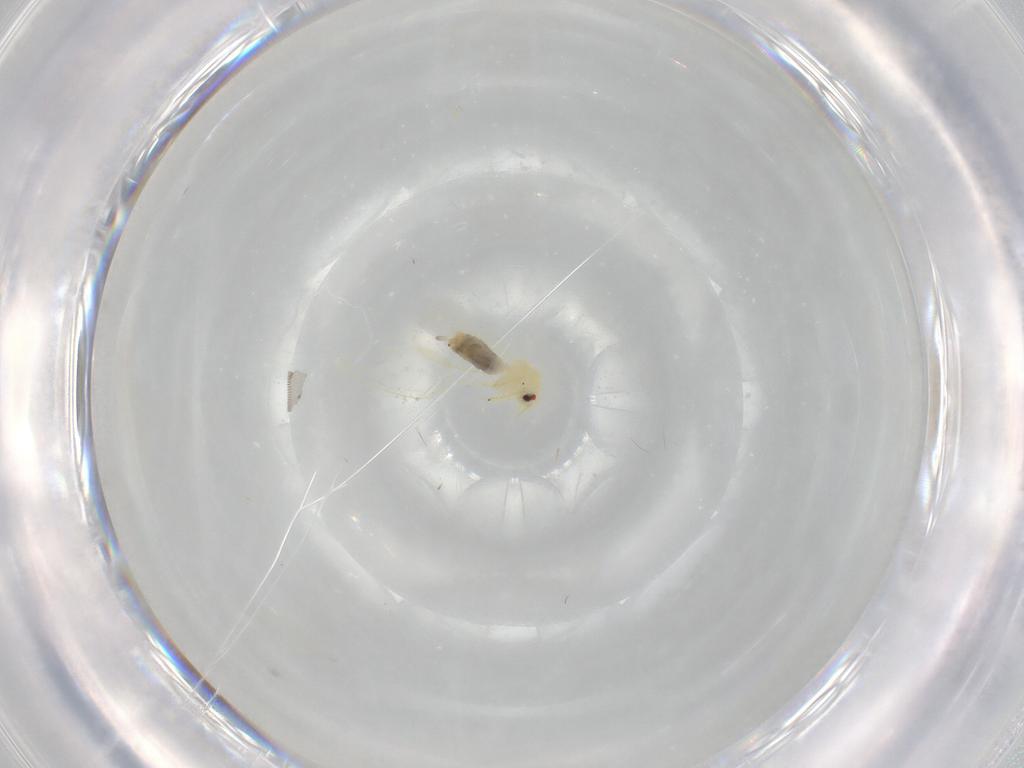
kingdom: Animalia
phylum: Arthropoda
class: Insecta
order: Hemiptera
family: Aleyrodidae
